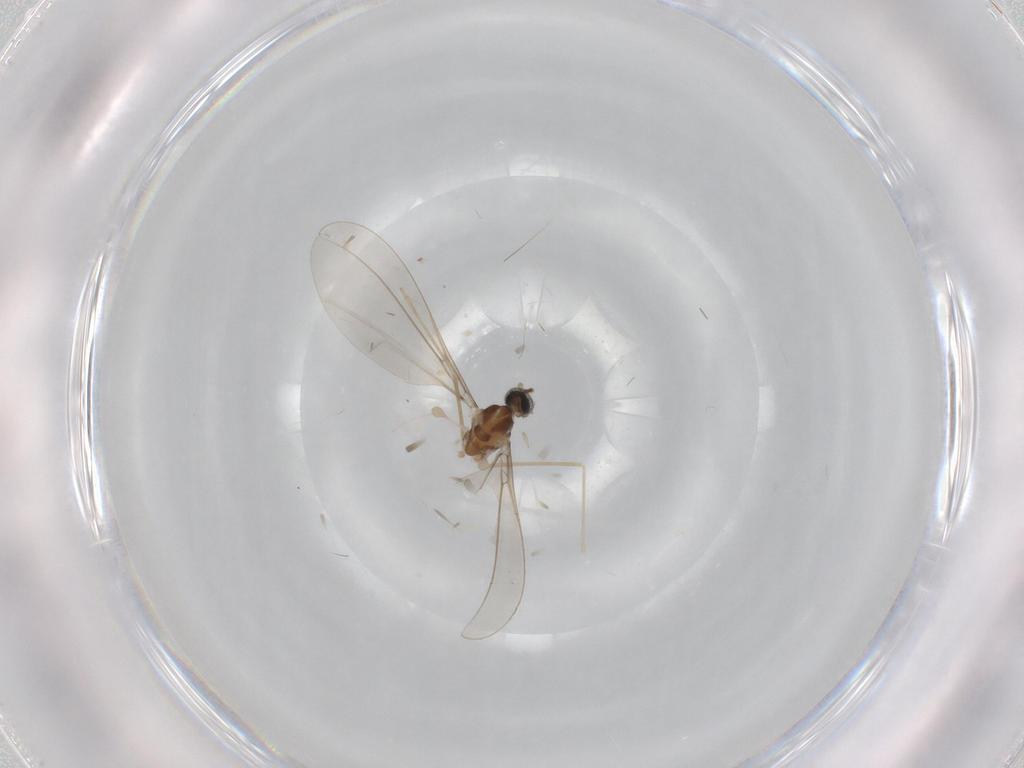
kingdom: Animalia
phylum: Arthropoda
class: Insecta
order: Diptera
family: Cecidomyiidae
